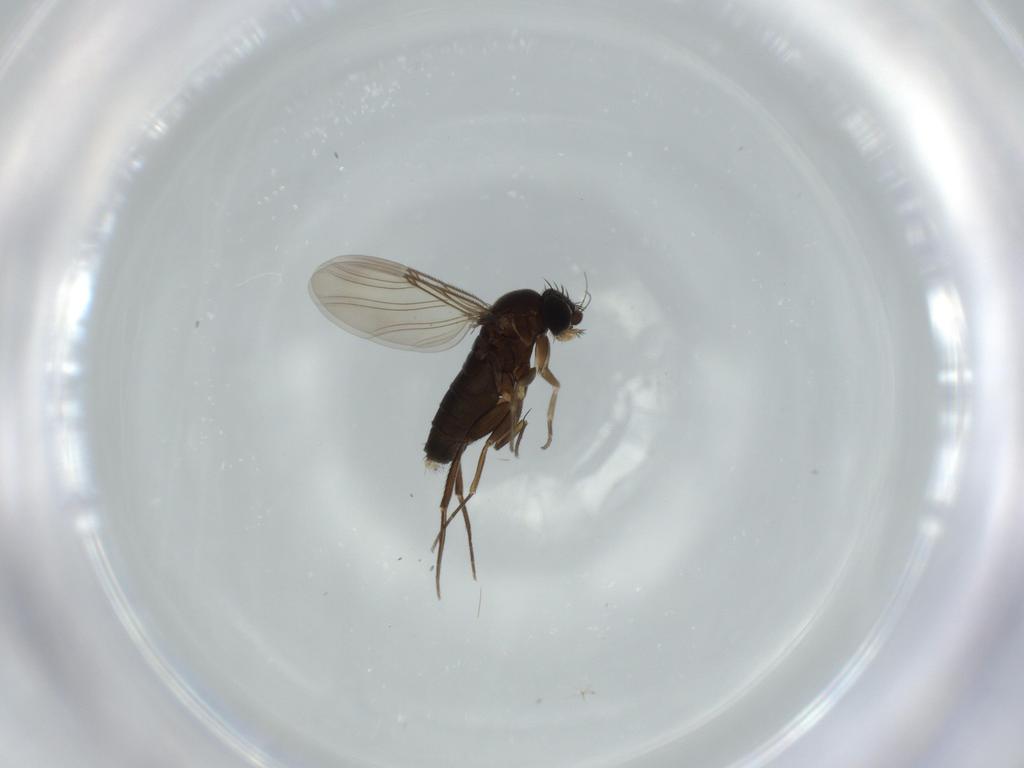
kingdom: Animalia
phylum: Arthropoda
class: Insecta
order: Diptera
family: Phoridae
